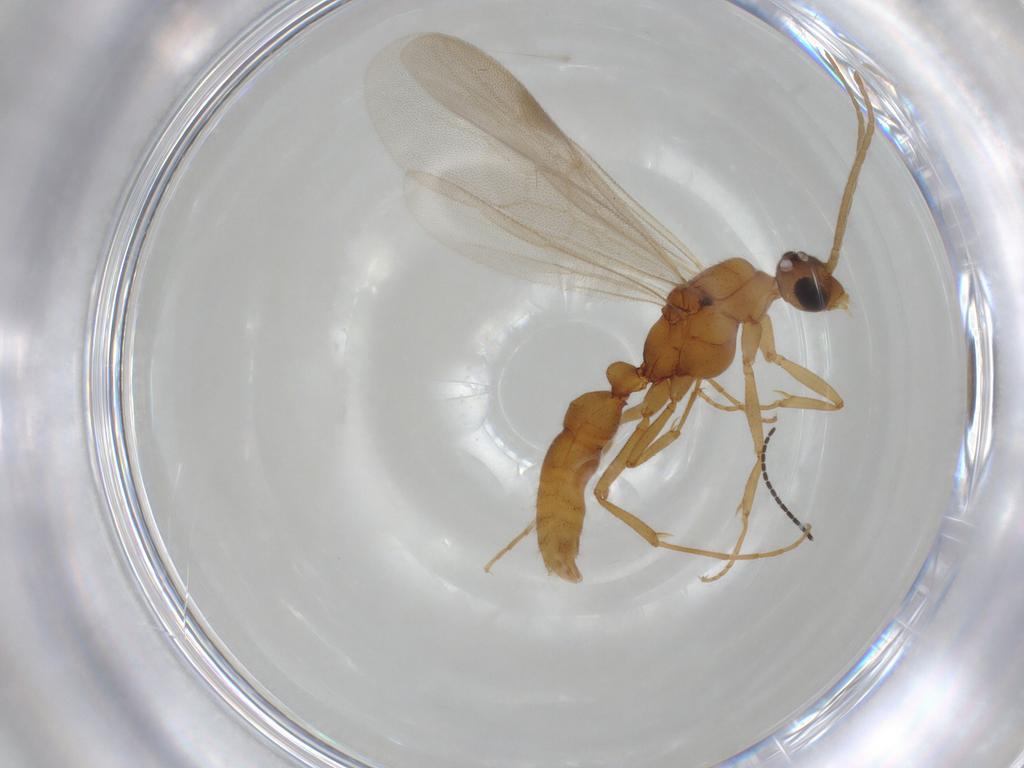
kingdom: Animalia
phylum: Arthropoda
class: Insecta
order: Hymenoptera
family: Formicidae
